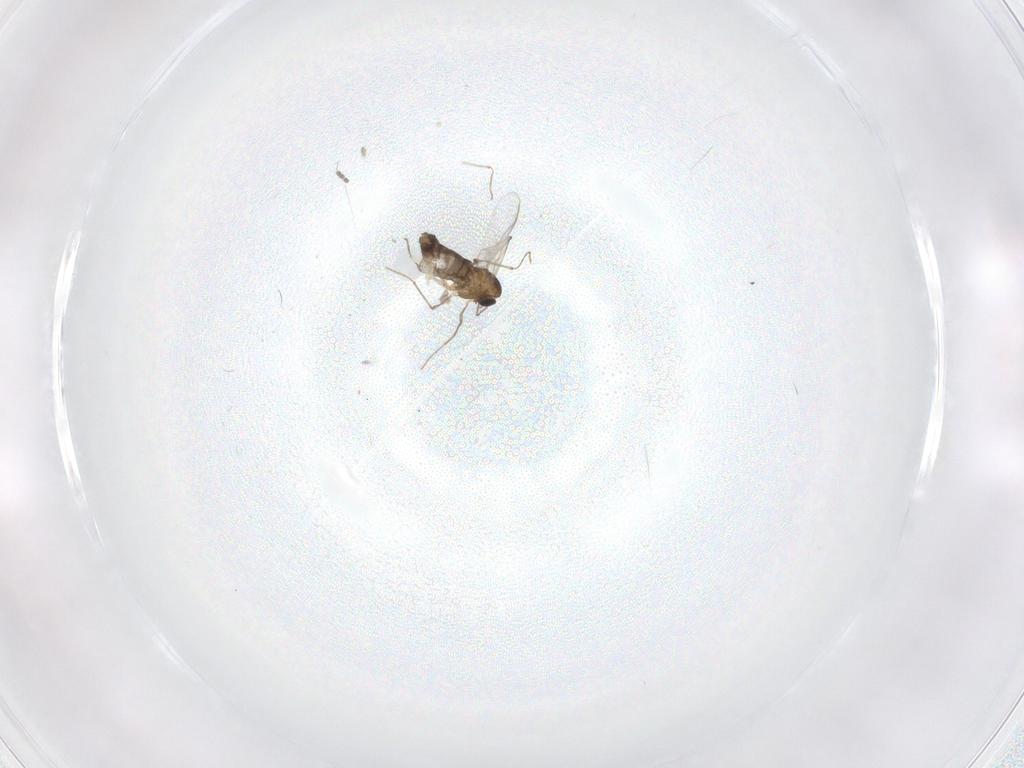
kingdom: Animalia
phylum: Arthropoda
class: Insecta
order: Diptera
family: Chironomidae
